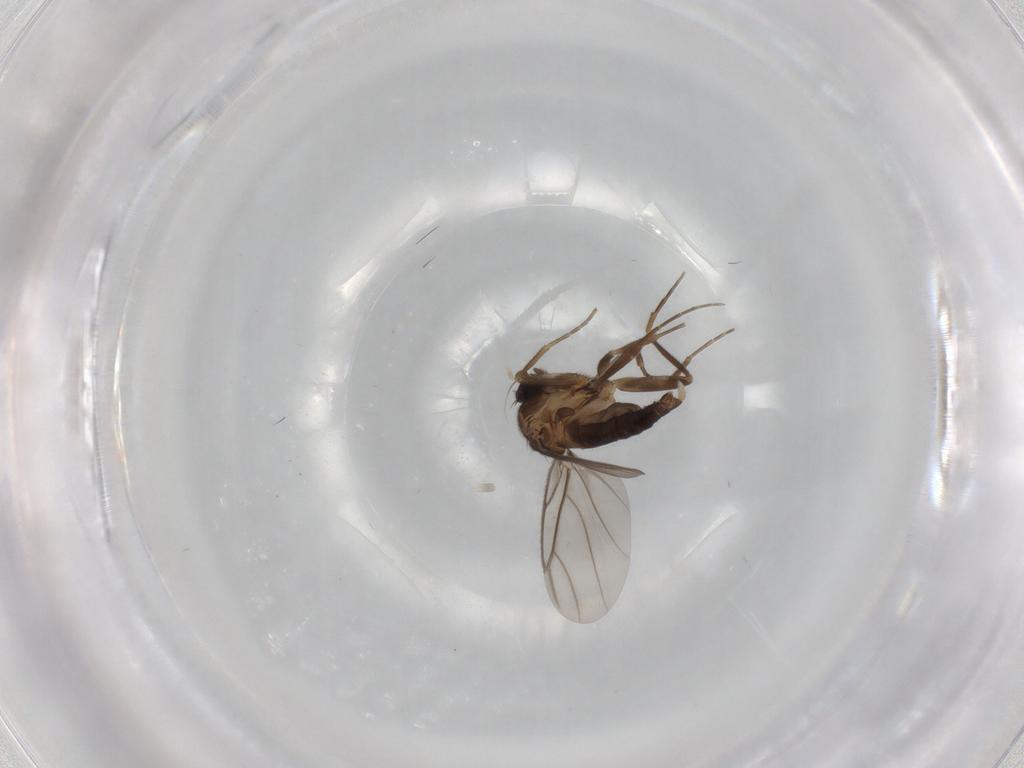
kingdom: Animalia
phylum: Arthropoda
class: Insecta
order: Diptera
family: Phoridae
